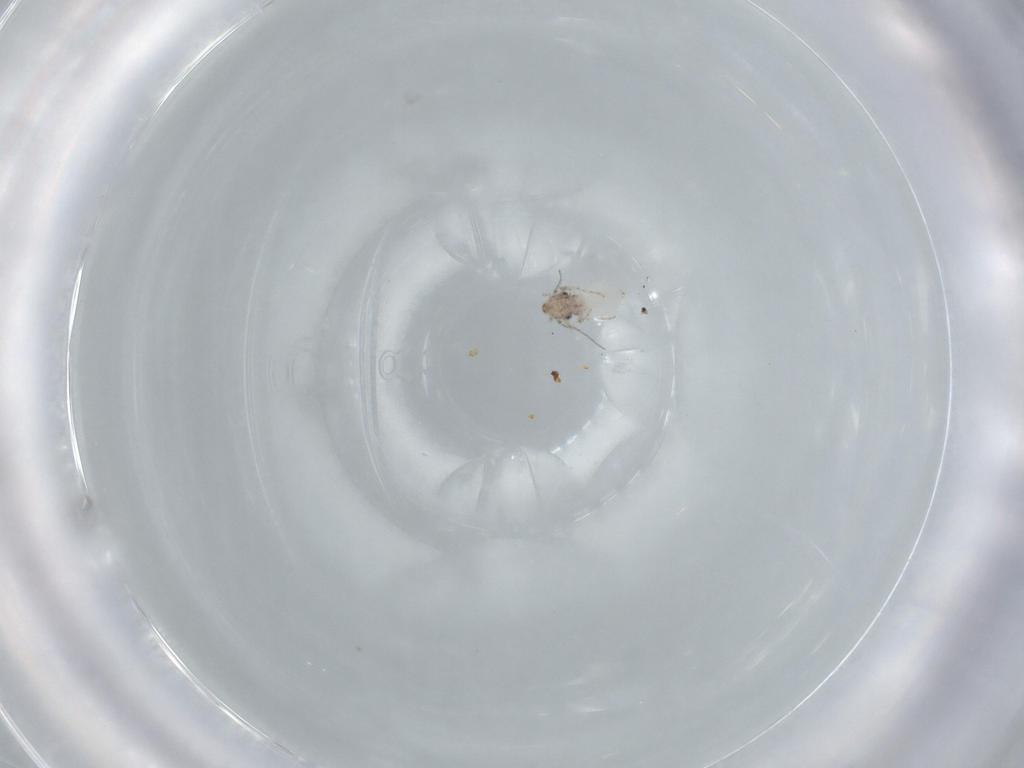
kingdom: Animalia
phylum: Arthropoda
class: Insecta
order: Psocodea
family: Lepidopsocidae
